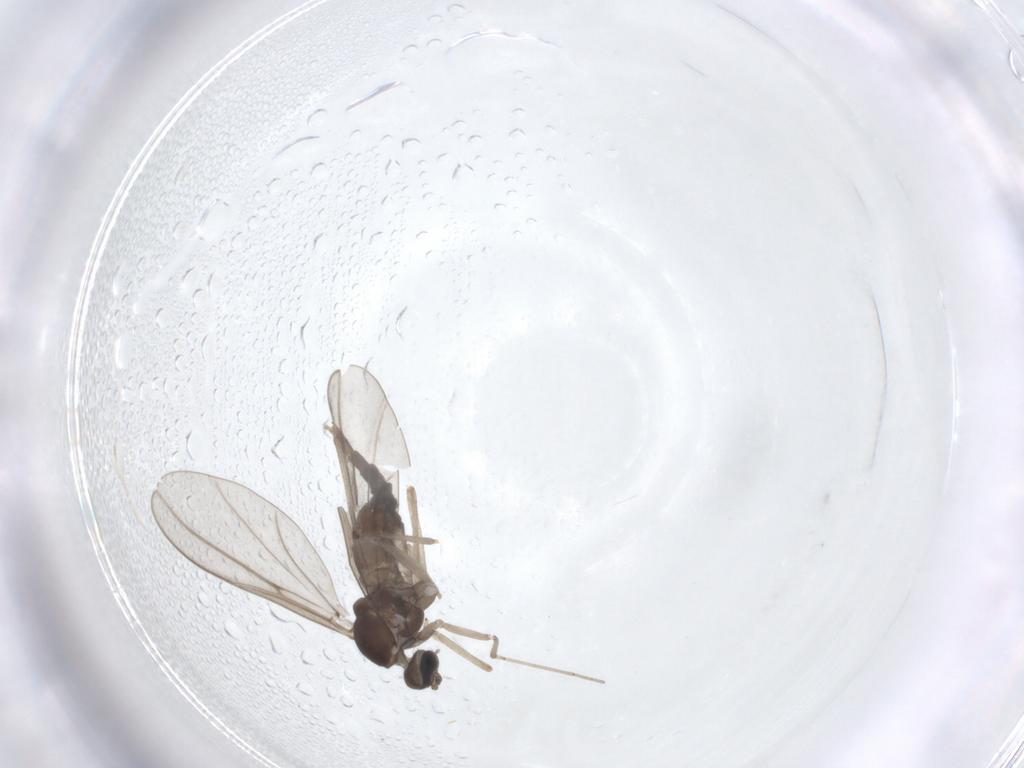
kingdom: Animalia
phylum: Arthropoda
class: Insecta
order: Diptera
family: Cecidomyiidae
